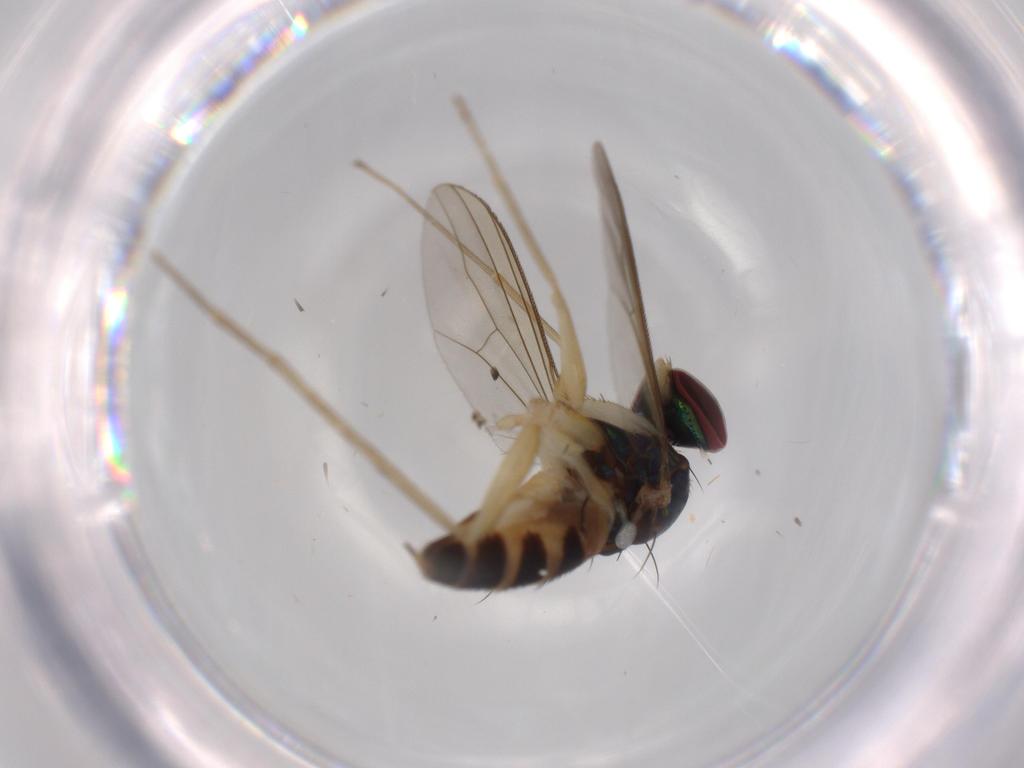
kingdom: Animalia
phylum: Arthropoda
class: Insecta
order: Diptera
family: Dolichopodidae
